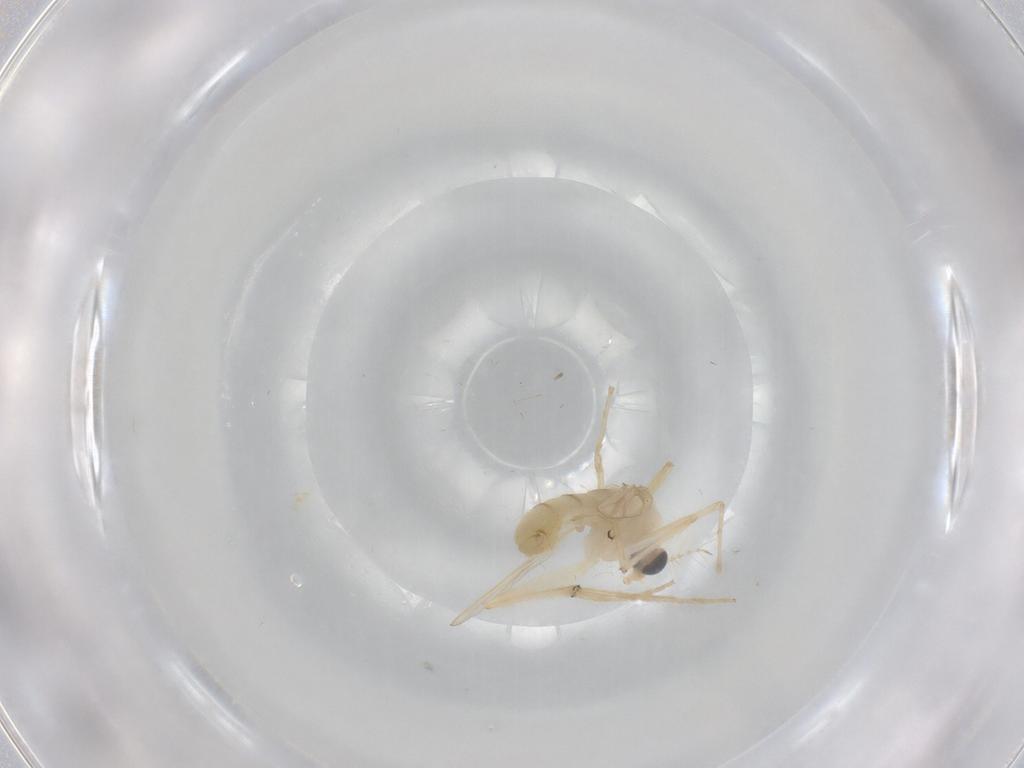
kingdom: Animalia
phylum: Arthropoda
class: Insecta
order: Diptera
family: Chironomidae
